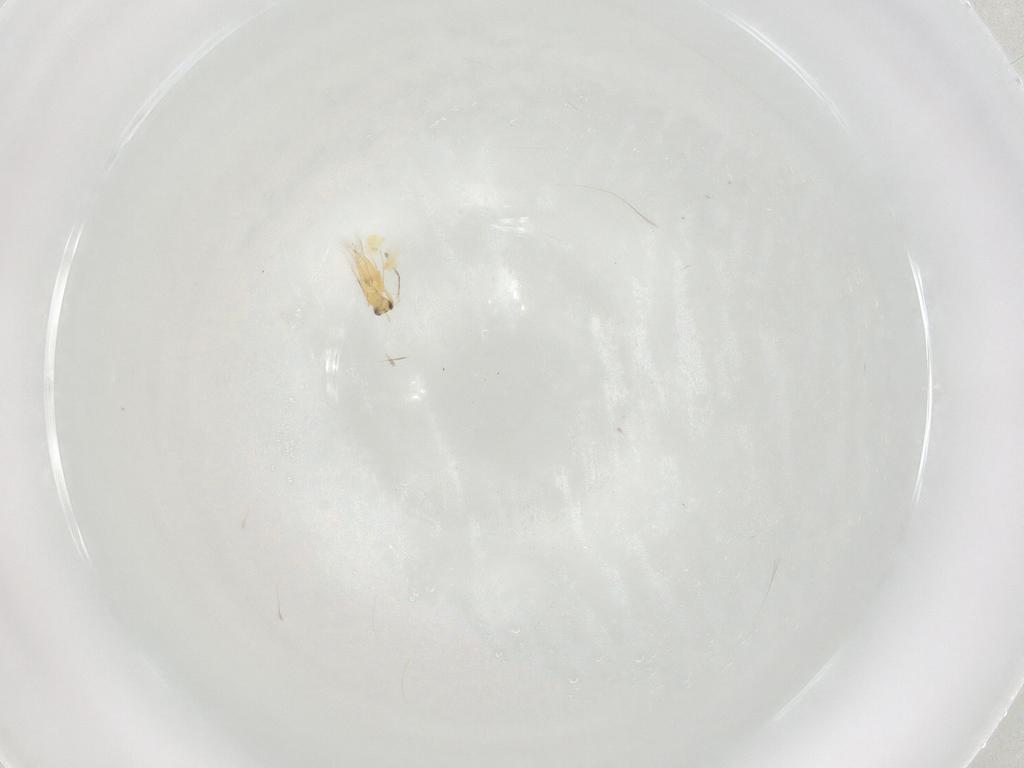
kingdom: Animalia
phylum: Arthropoda
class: Insecta
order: Hymenoptera
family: Mymaridae
